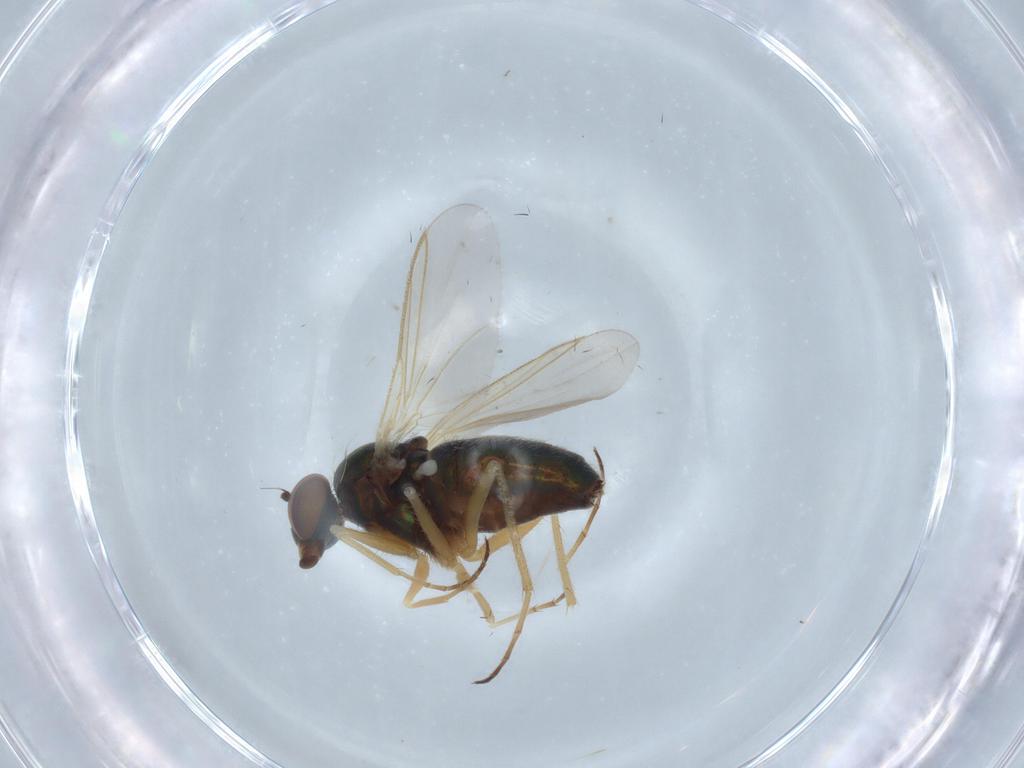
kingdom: Animalia
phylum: Arthropoda
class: Insecta
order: Diptera
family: Dolichopodidae
